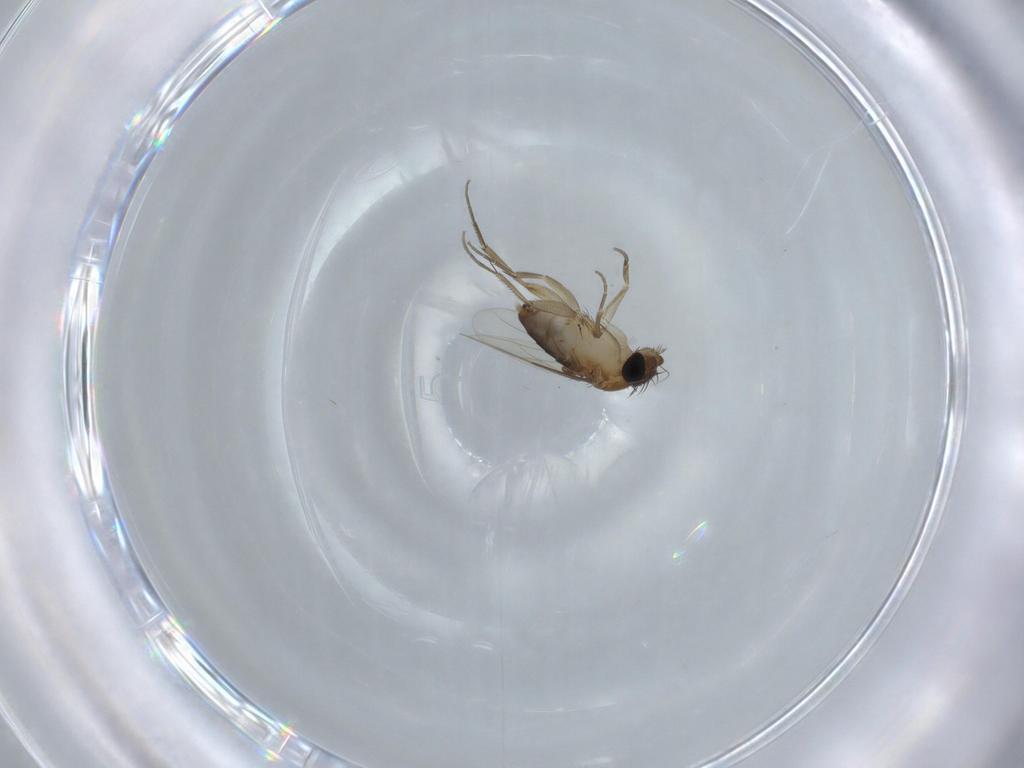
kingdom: Animalia
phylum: Arthropoda
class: Insecta
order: Diptera
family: Phoridae
